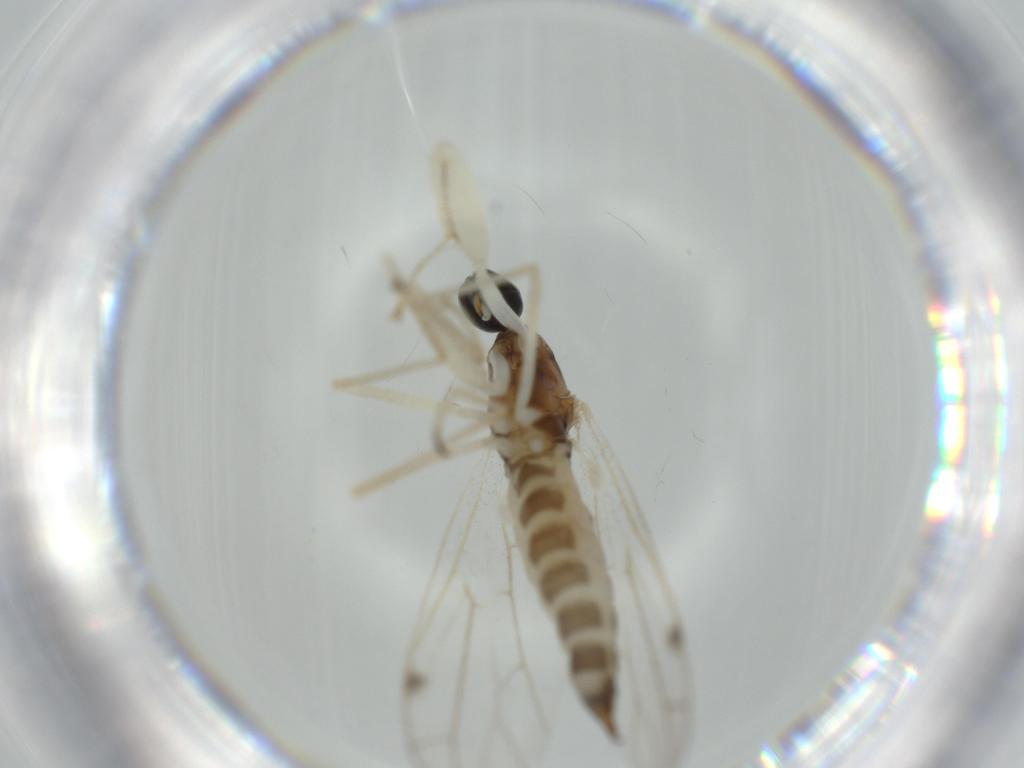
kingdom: Animalia
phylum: Arthropoda
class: Insecta
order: Diptera
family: Empididae
